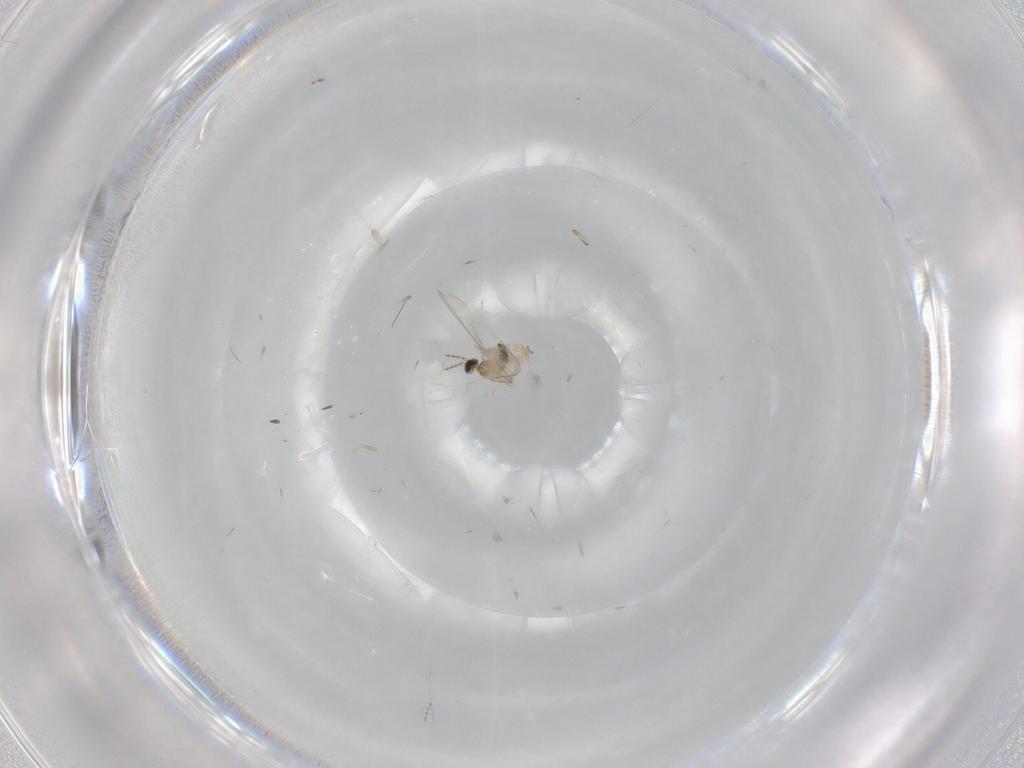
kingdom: Animalia
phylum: Arthropoda
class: Insecta
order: Diptera
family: Cecidomyiidae
